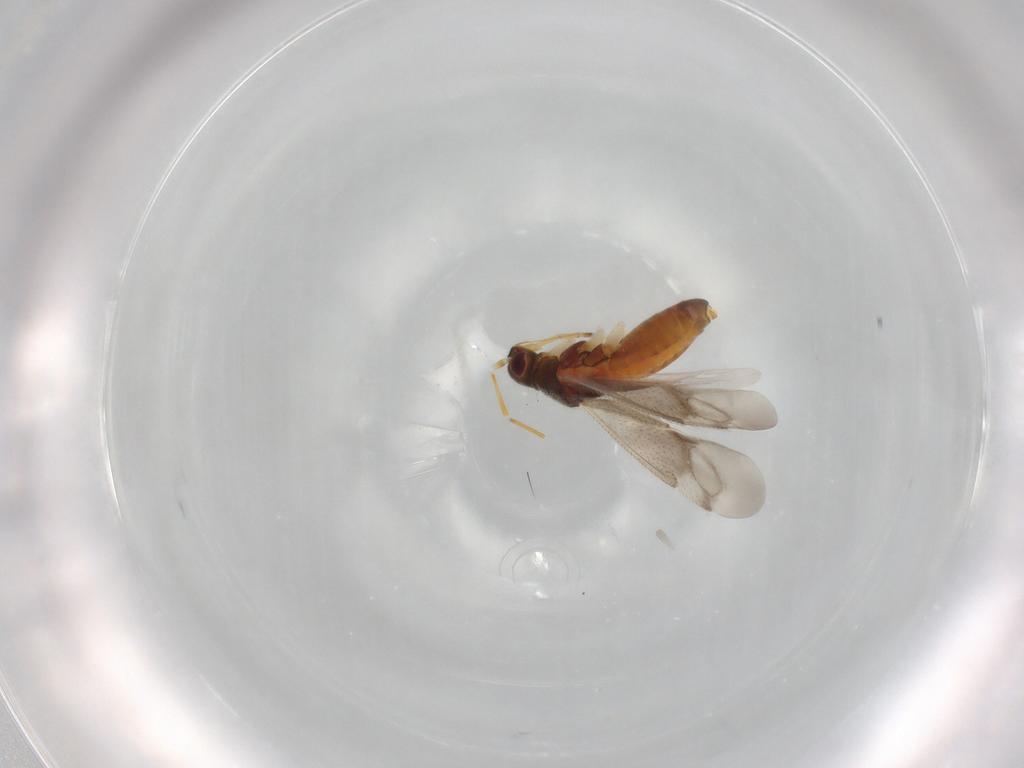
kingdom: Animalia
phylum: Arthropoda
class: Insecta
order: Hemiptera
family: Miridae
